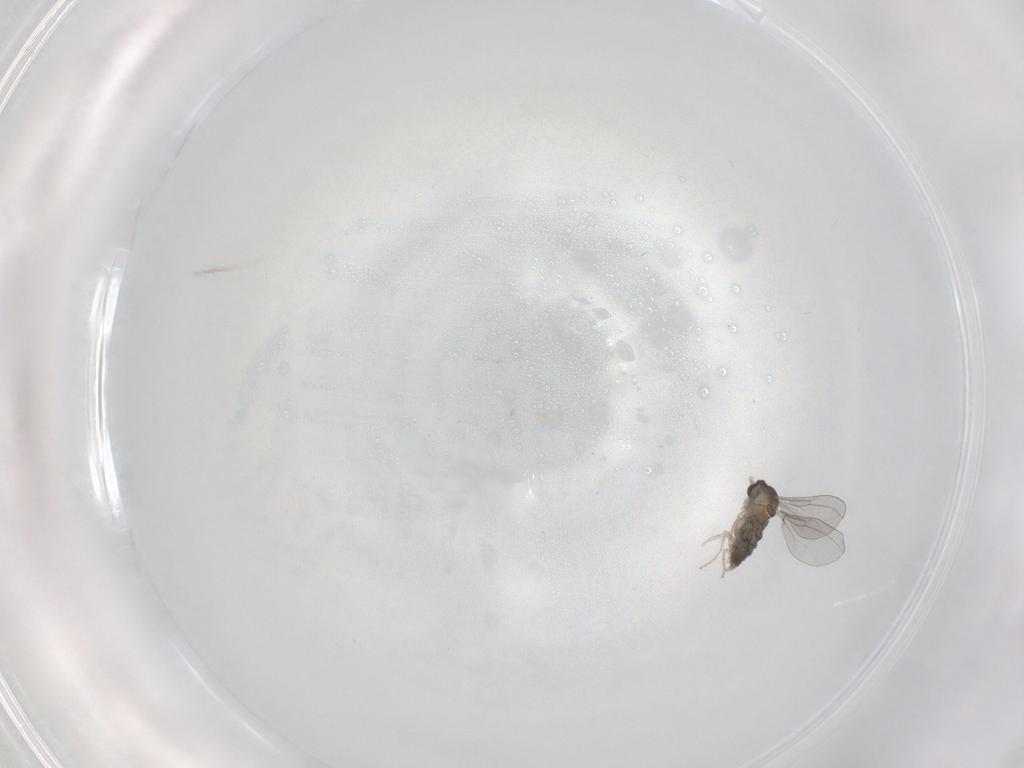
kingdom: Animalia
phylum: Arthropoda
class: Insecta
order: Diptera
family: Cecidomyiidae
